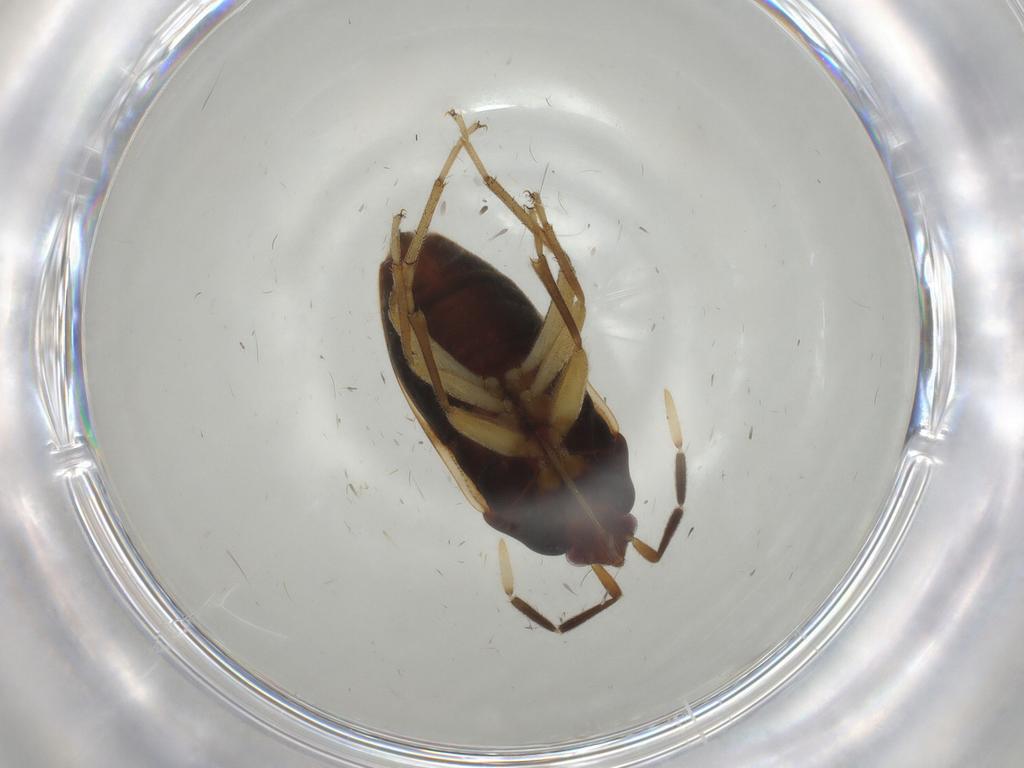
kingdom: Animalia
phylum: Arthropoda
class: Insecta
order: Hemiptera
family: Rhyparochromidae
